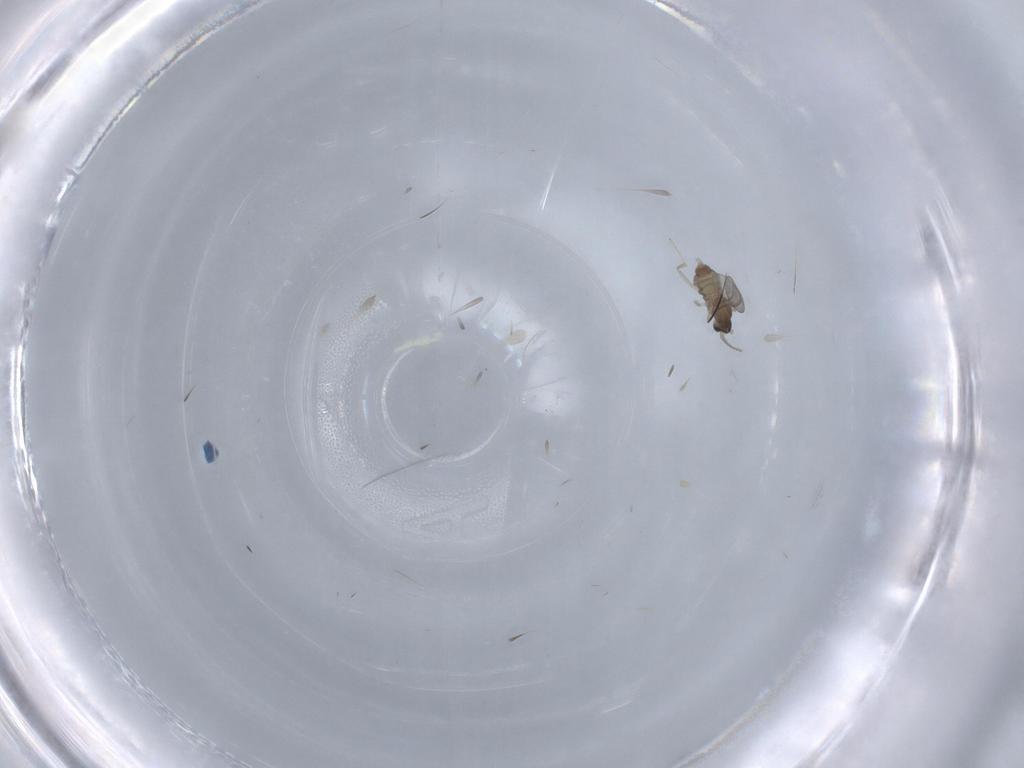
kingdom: Animalia
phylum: Arthropoda
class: Insecta
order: Diptera
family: Cecidomyiidae
